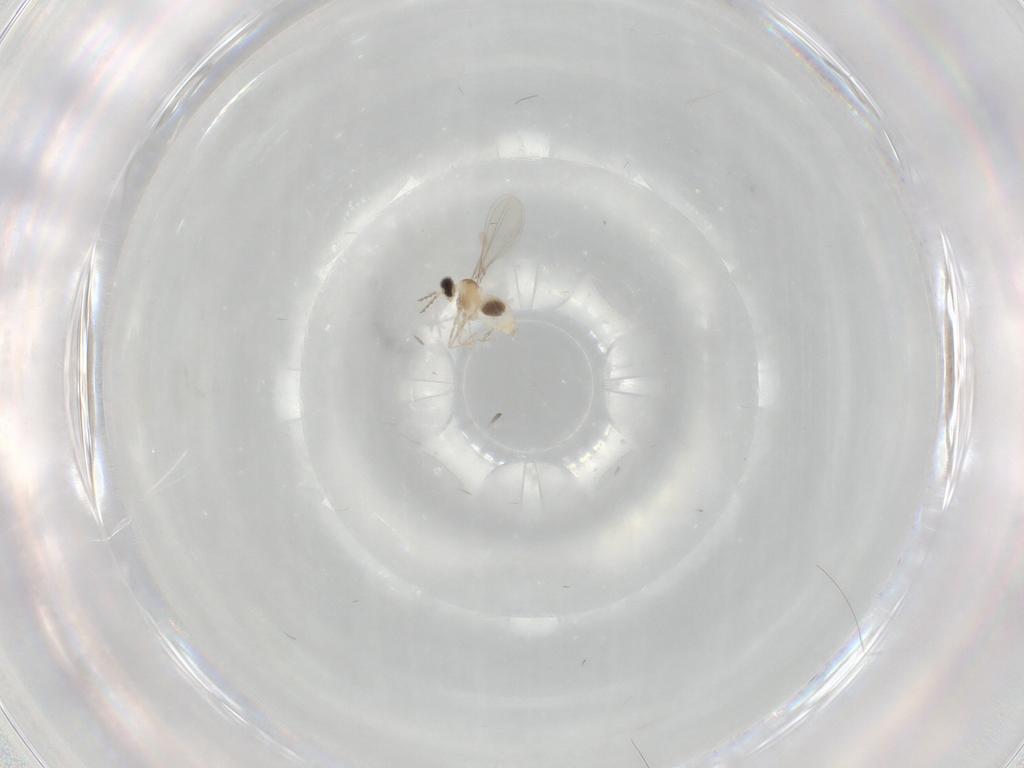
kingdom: Animalia
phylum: Arthropoda
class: Insecta
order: Diptera
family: Cecidomyiidae
